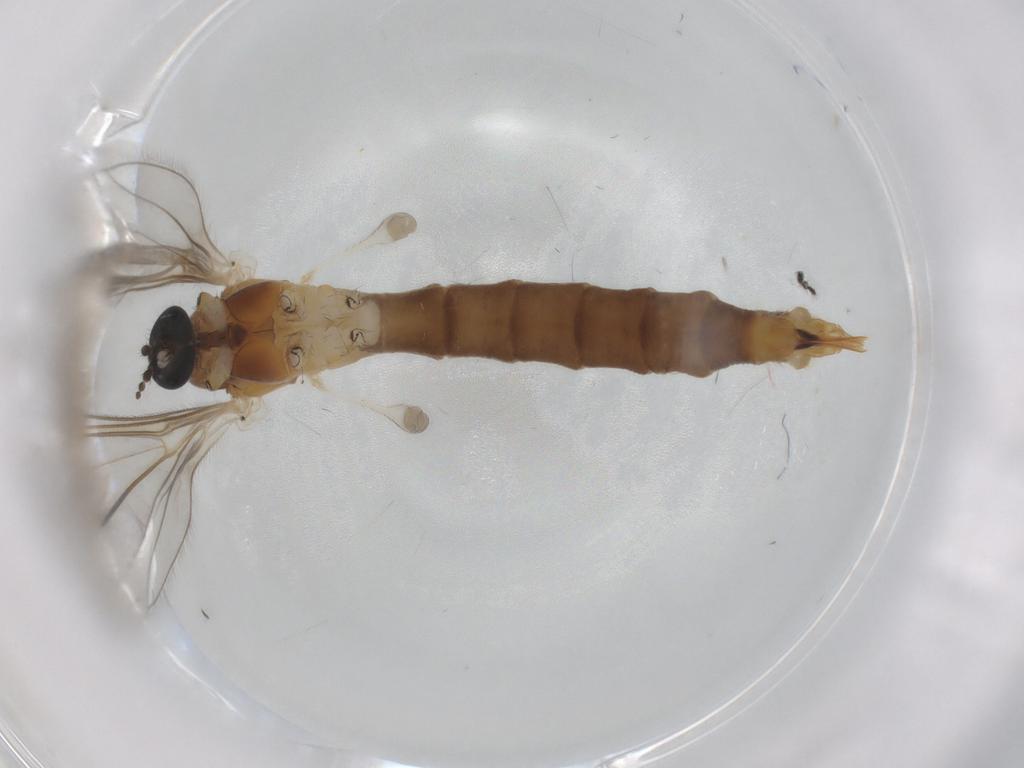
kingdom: Animalia
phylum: Arthropoda
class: Insecta
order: Diptera
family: Limoniidae
